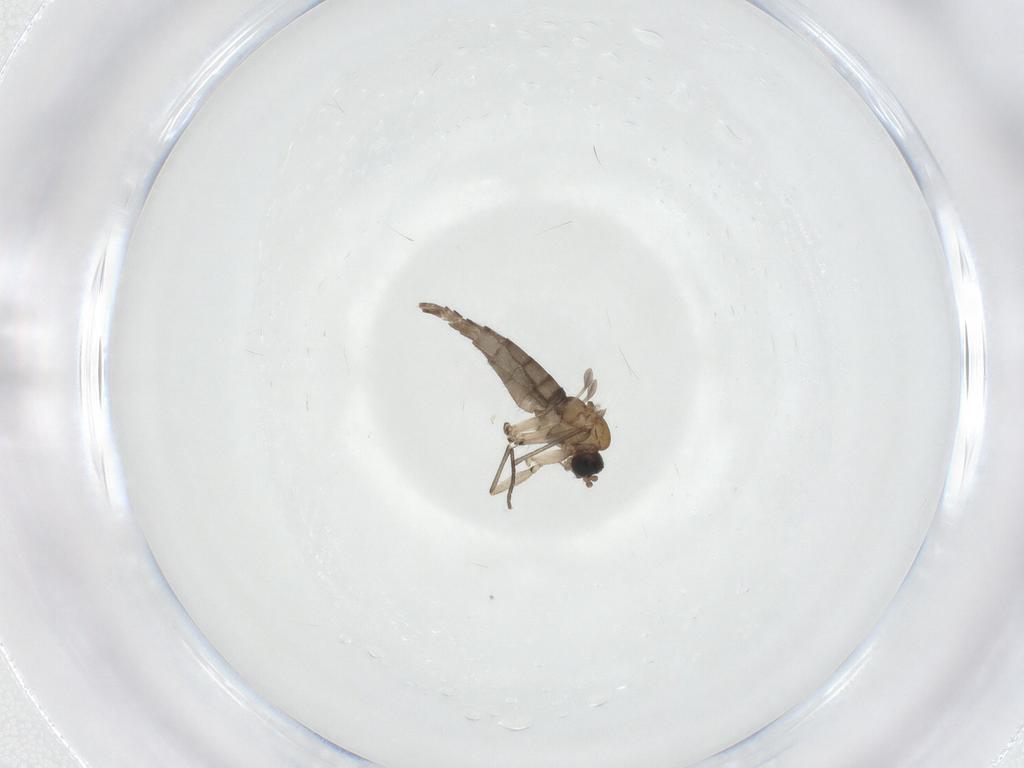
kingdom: Animalia
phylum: Arthropoda
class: Insecta
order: Diptera
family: Sciaridae
